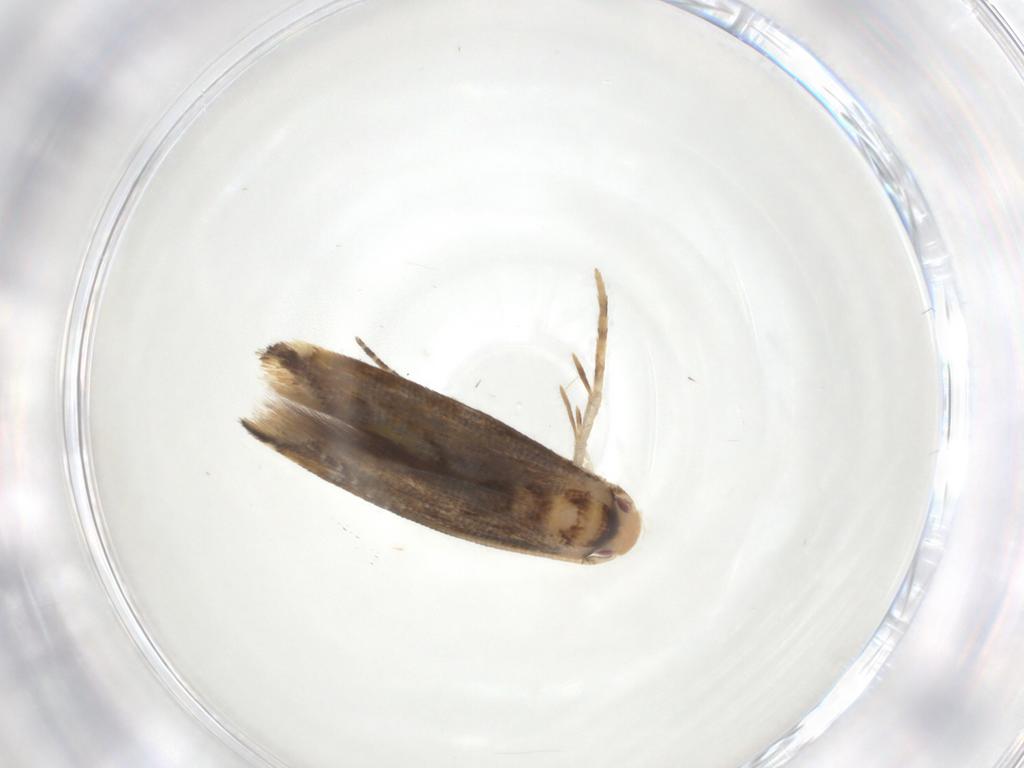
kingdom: Animalia
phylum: Arthropoda
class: Insecta
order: Lepidoptera
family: Momphidae
